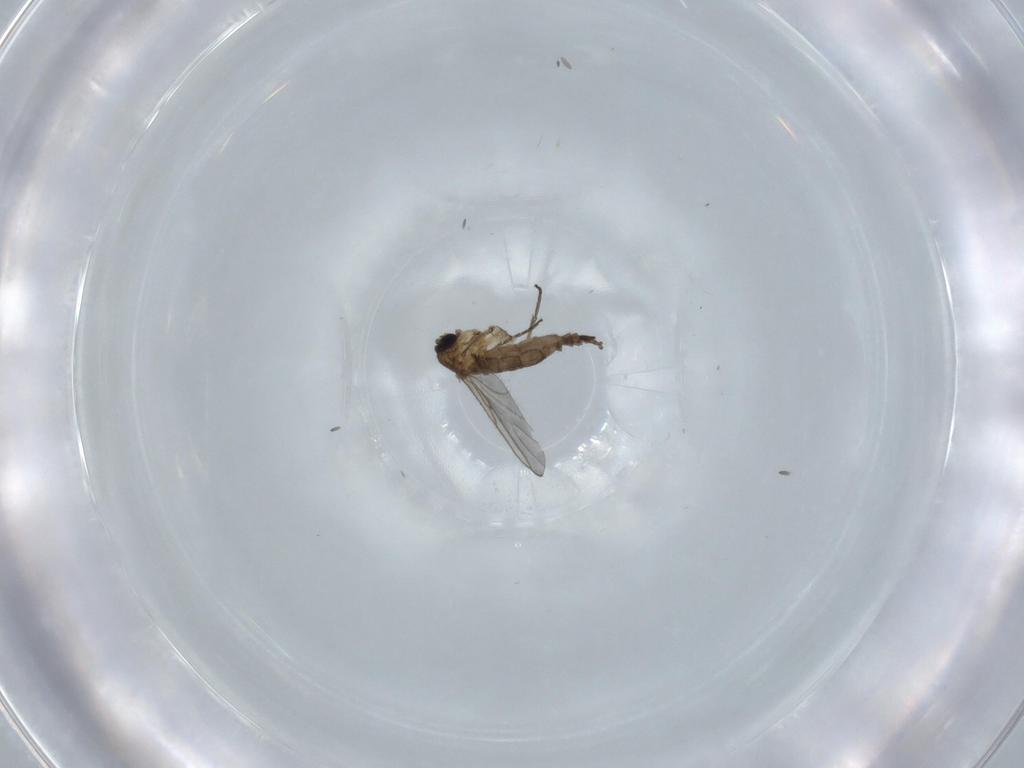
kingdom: Animalia
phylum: Arthropoda
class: Insecta
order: Diptera
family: Sciaridae
